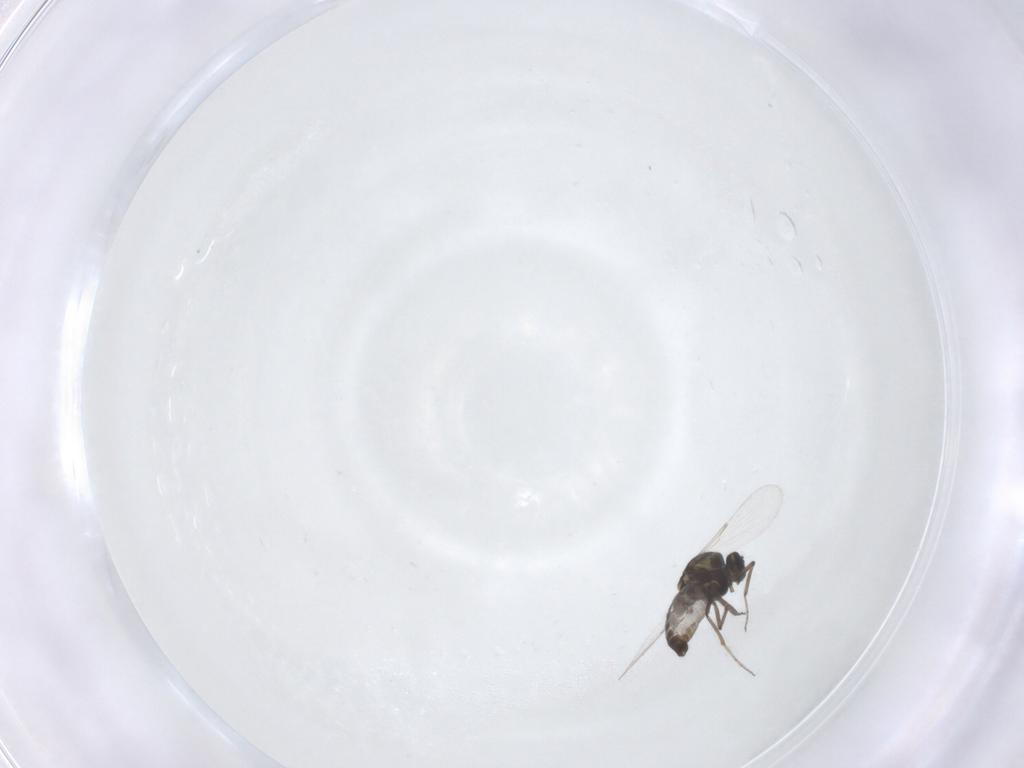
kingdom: Animalia
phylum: Arthropoda
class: Insecta
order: Diptera
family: Ceratopogonidae
